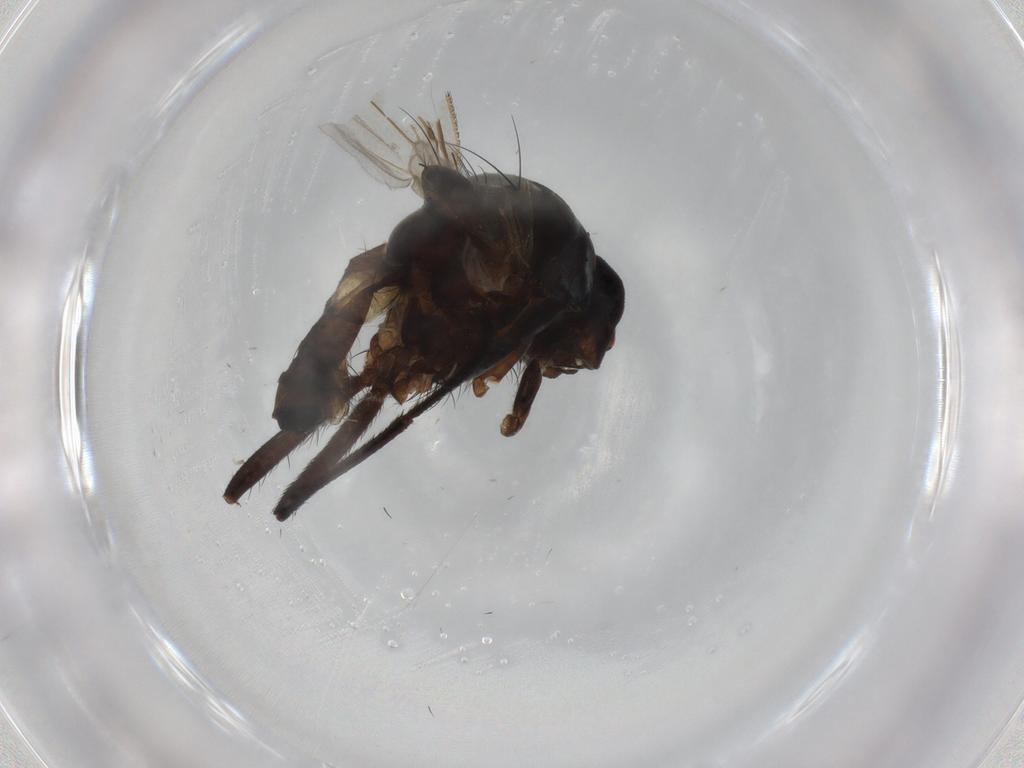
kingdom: Animalia
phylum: Arthropoda
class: Insecta
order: Diptera
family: Anthomyiidae
